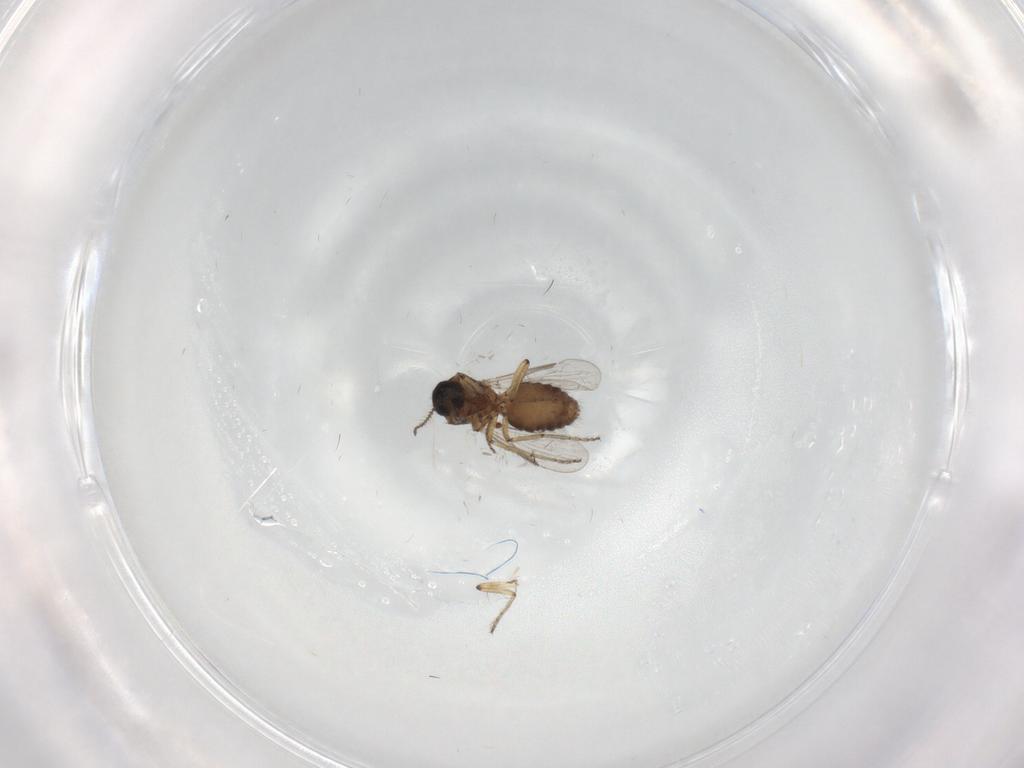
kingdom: Animalia
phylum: Arthropoda
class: Insecta
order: Diptera
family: Ceratopogonidae
